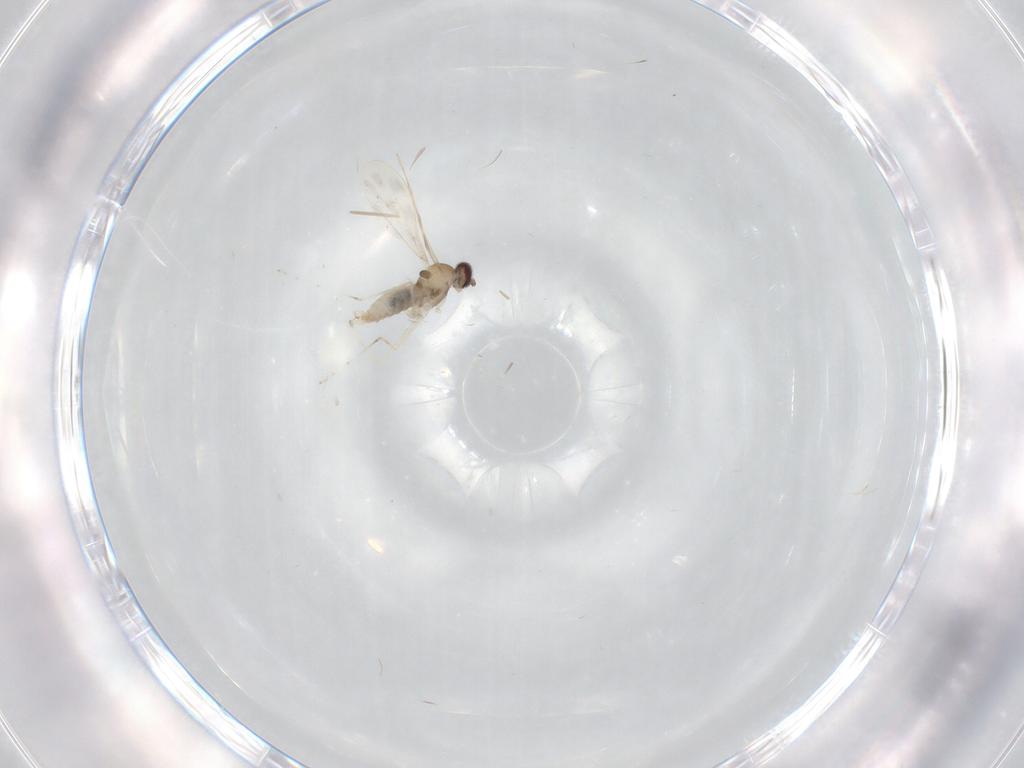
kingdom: Animalia
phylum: Arthropoda
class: Insecta
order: Diptera
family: Cecidomyiidae
